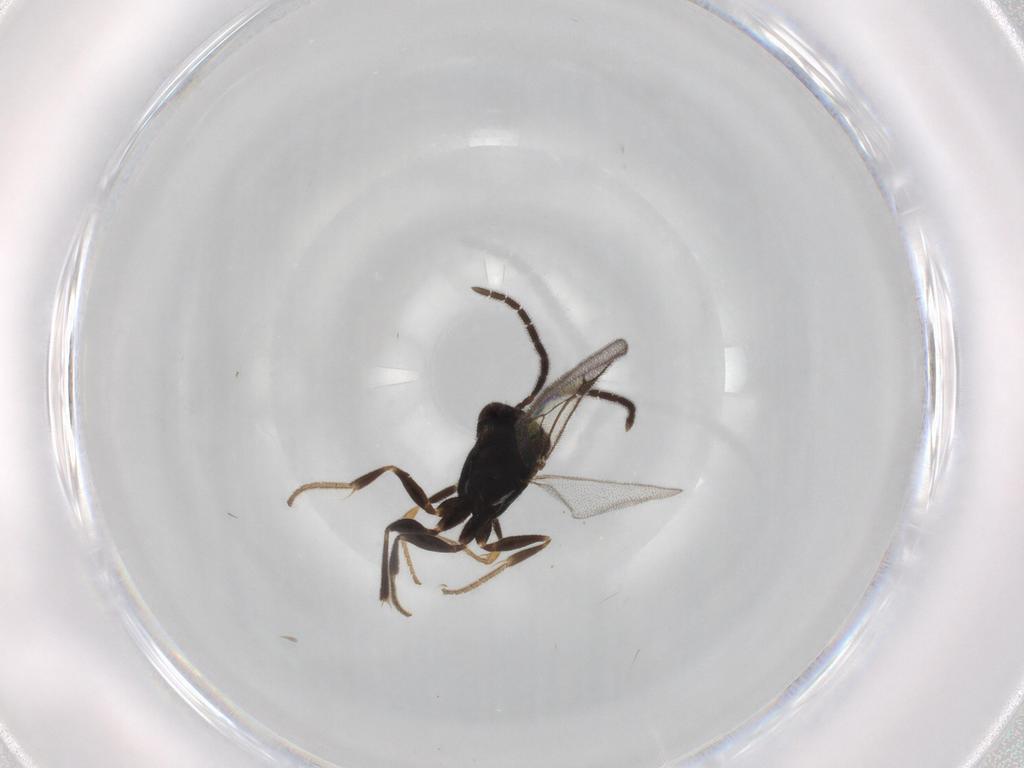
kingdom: Animalia
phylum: Arthropoda
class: Insecta
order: Hymenoptera
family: Dryinidae
